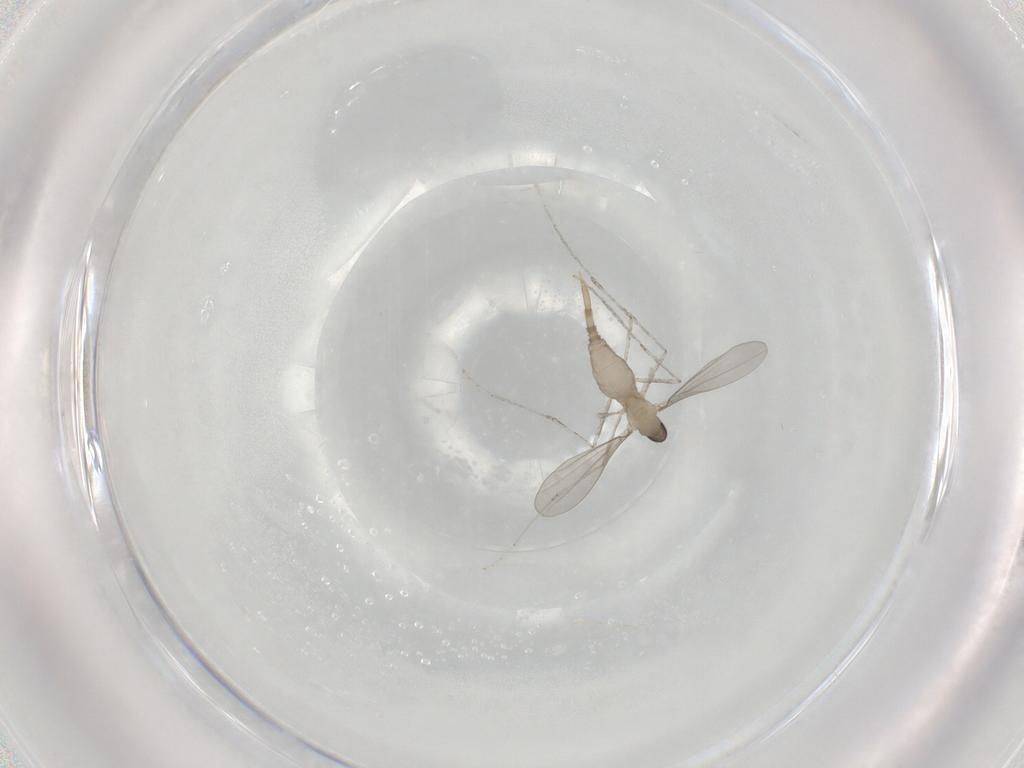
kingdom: Animalia
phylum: Arthropoda
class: Insecta
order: Diptera
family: Cecidomyiidae
